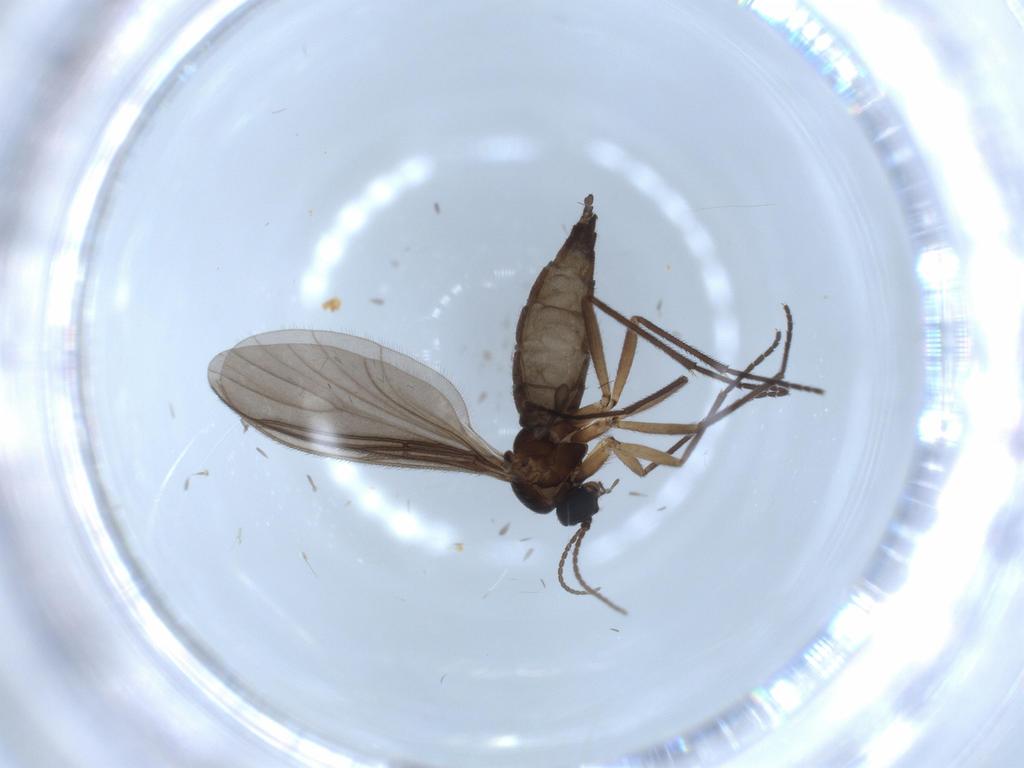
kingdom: Animalia
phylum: Arthropoda
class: Insecta
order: Diptera
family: Sciaridae
